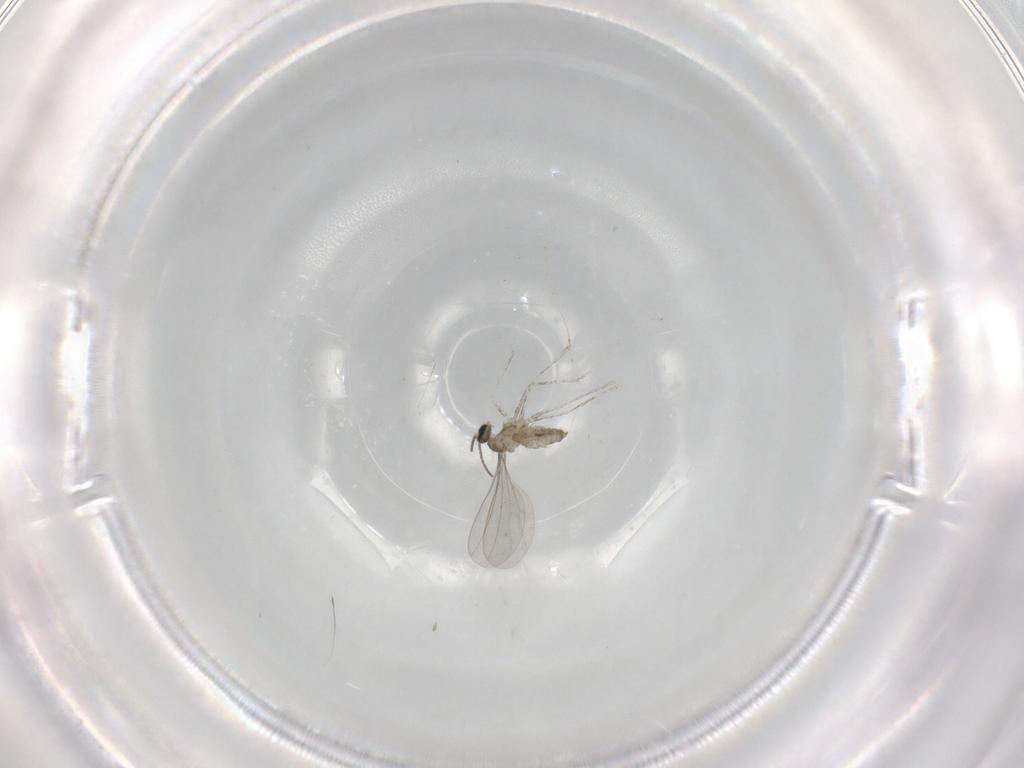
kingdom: Animalia
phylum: Arthropoda
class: Insecta
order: Diptera
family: Cecidomyiidae
